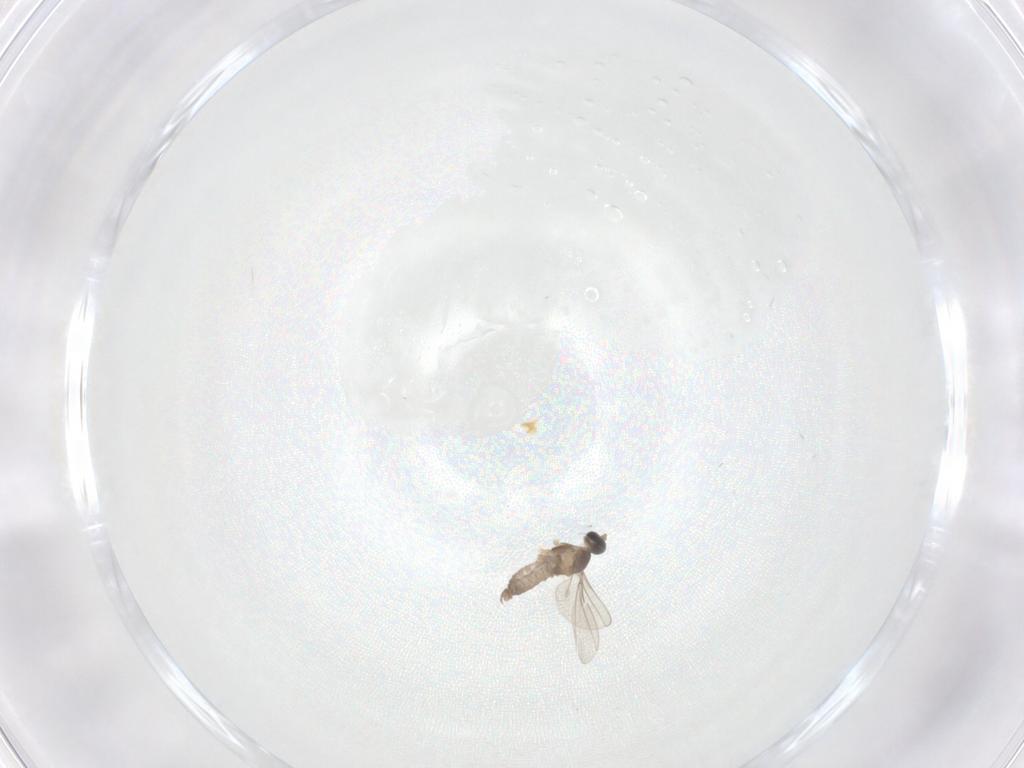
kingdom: Animalia
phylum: Arthropoda
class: Insecta
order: Diptera
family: Cecidomyiidae
